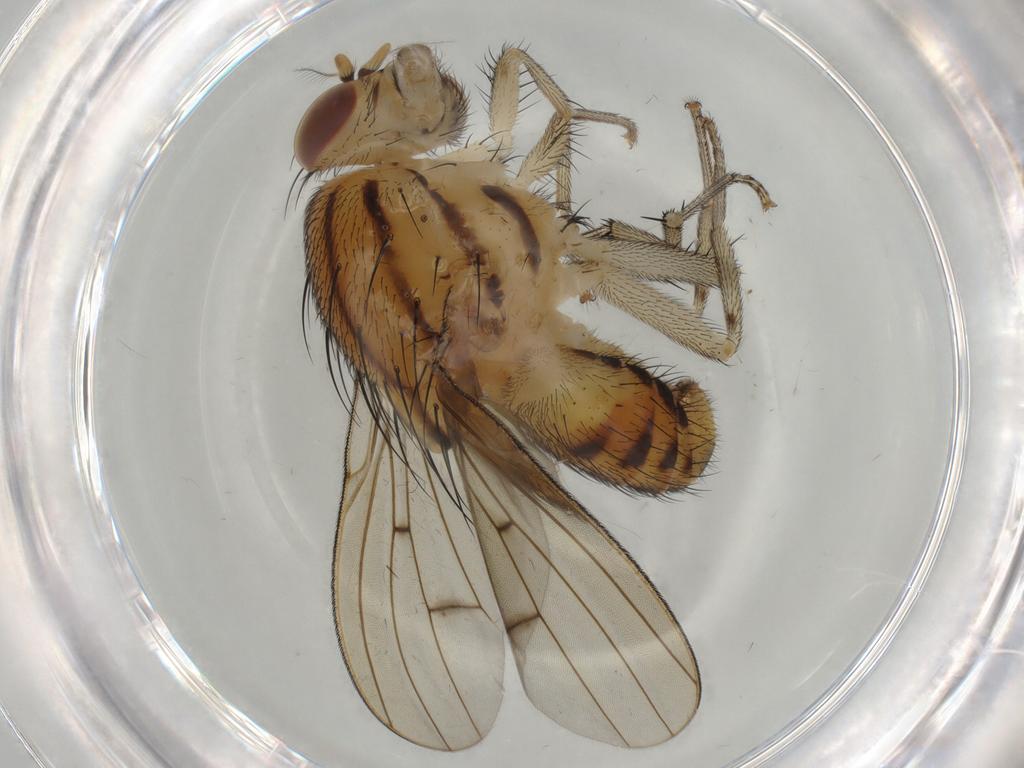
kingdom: Animalia
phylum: Arthropoda
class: Insecta
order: Diptera
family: Lauxaniidae
